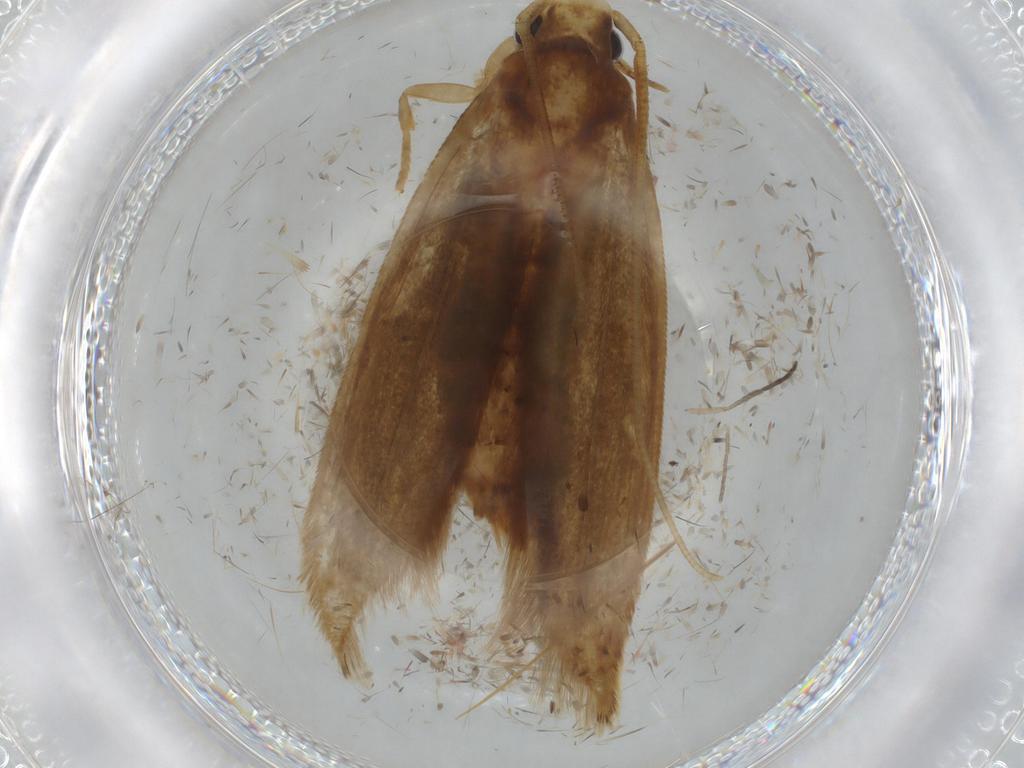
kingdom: Animalia
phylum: Arthropoda
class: Insecta
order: Lepidoptera
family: Tineidae
